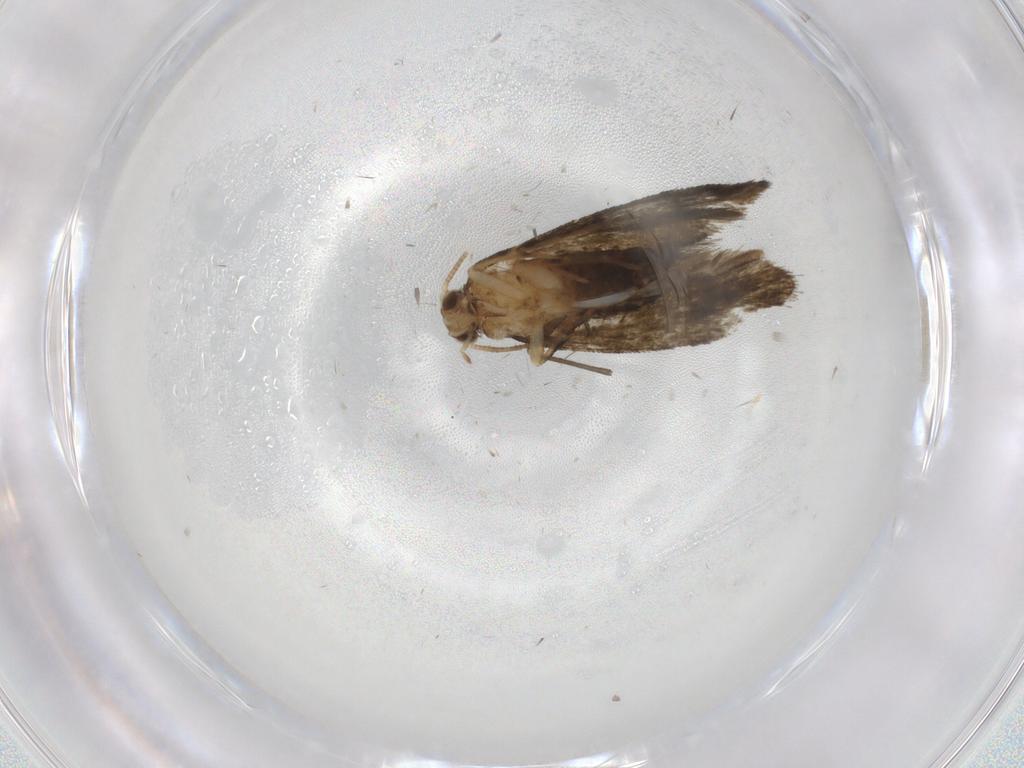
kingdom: Animalia
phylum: Arthropoda
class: Insecta
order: Lepidoptera
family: Crambidae
